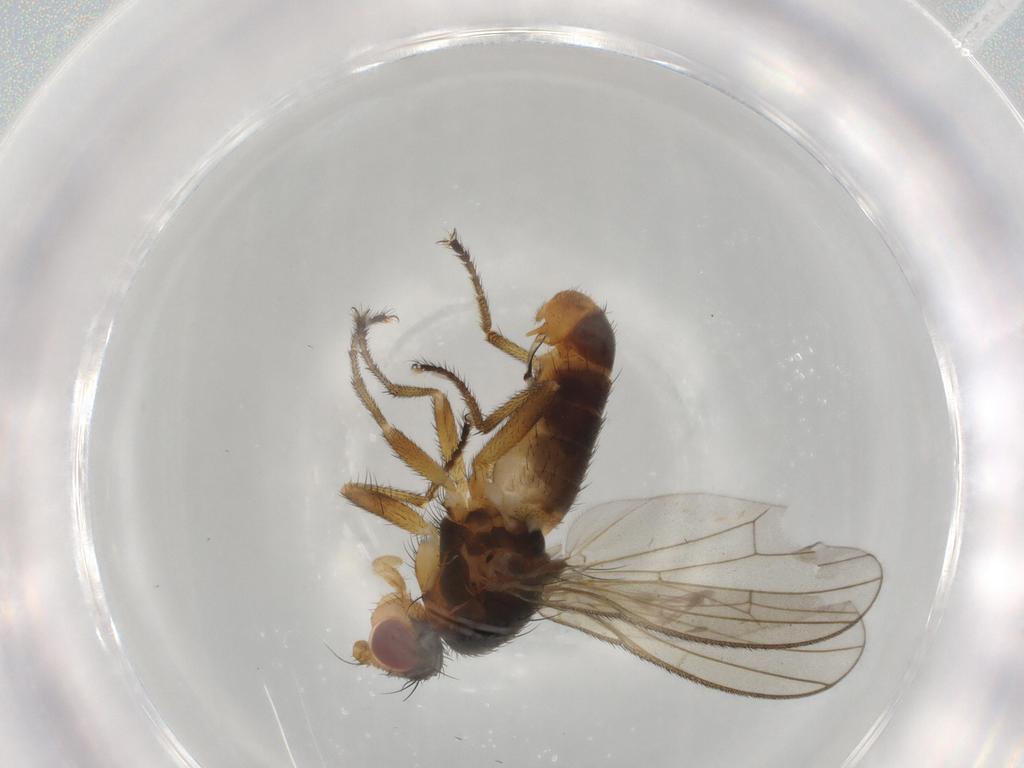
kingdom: Animalia
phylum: Arthropoda
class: Insecta
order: Diptera
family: Heleomyzidae
